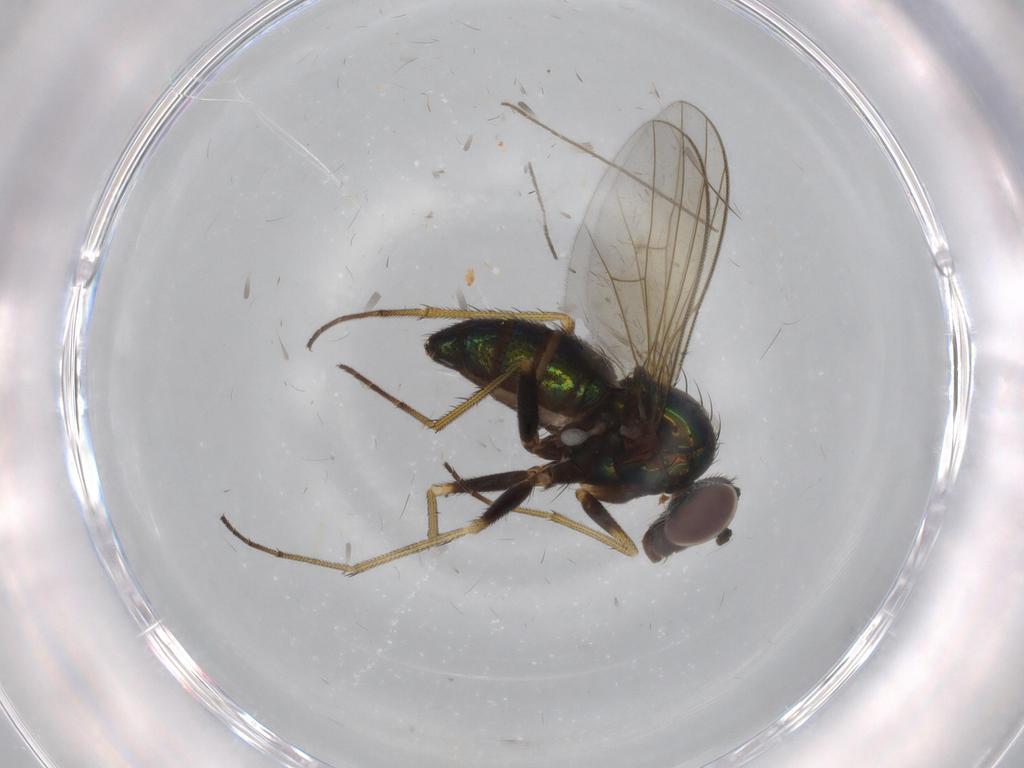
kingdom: Animalia
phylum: Arthropoda
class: Insecta
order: Diptera
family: Dolichopodidae
